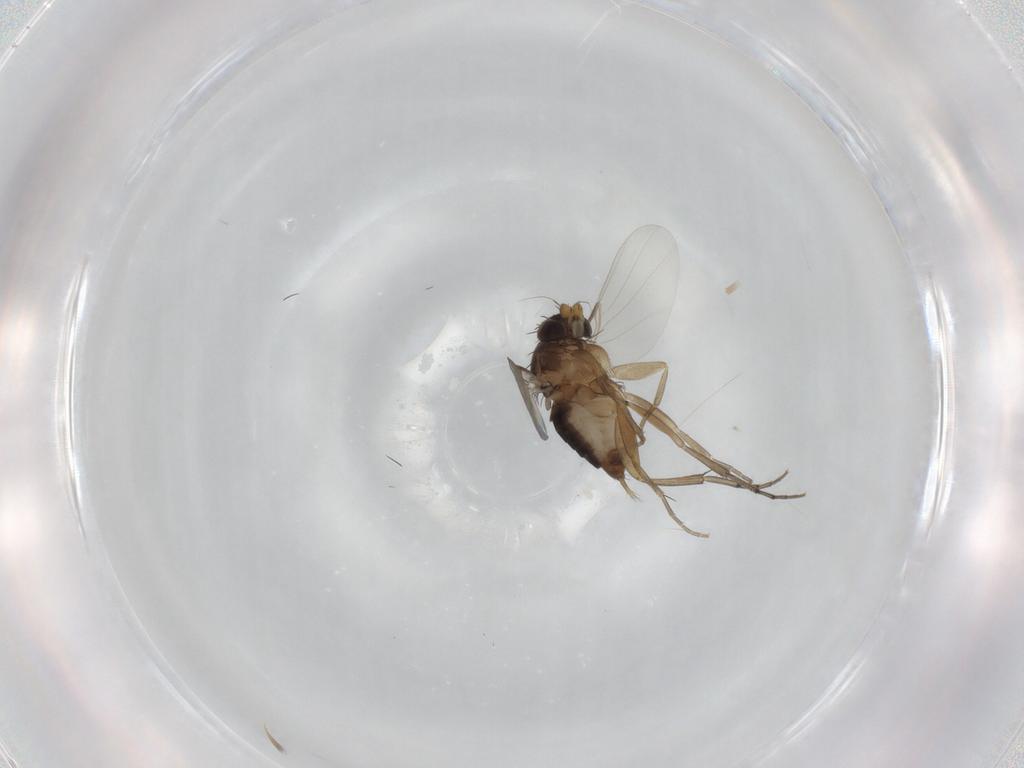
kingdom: Animalia
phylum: Arthropoda
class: Insecta
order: Diptera
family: Phoridae
